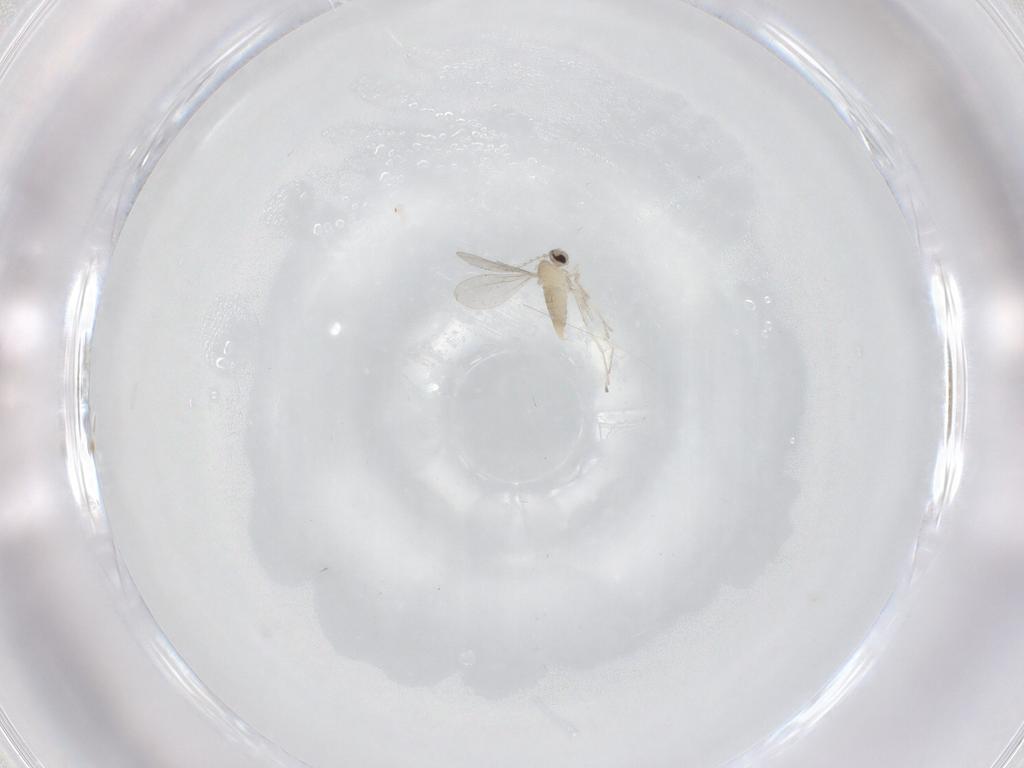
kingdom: Animalia
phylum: Arthropoda
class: Insecta
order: Diptera
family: Cecidomyiidae
